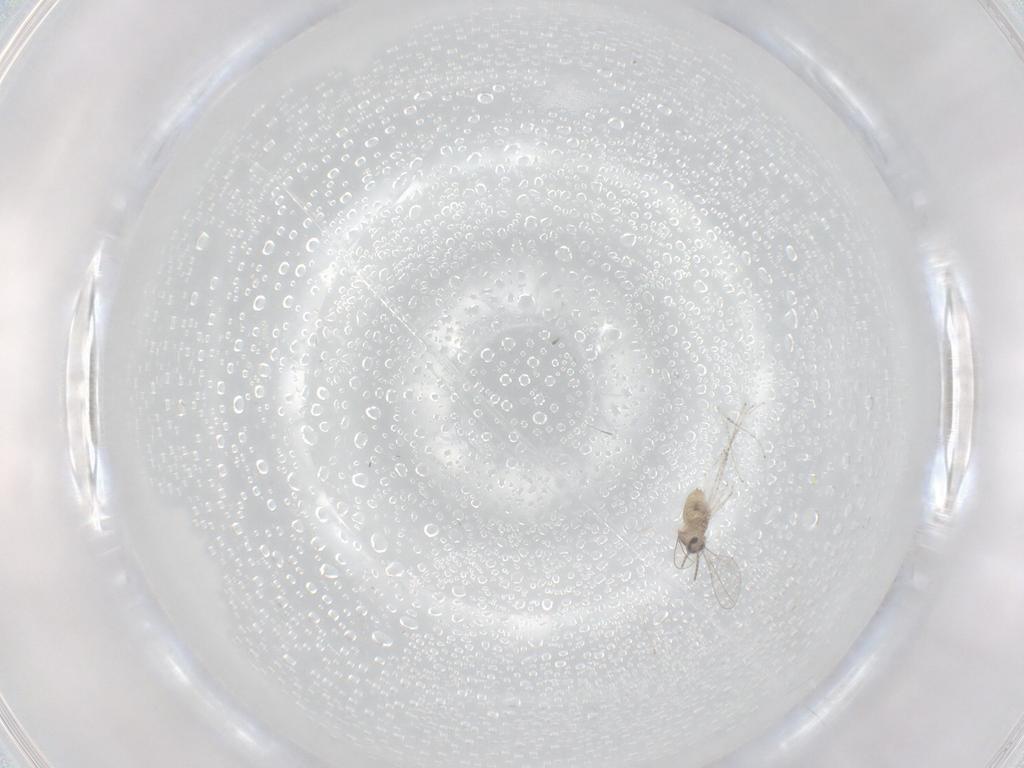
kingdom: Animalia
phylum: Arthropoda
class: Insecta
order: Diptera
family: Cecidomyiidae
